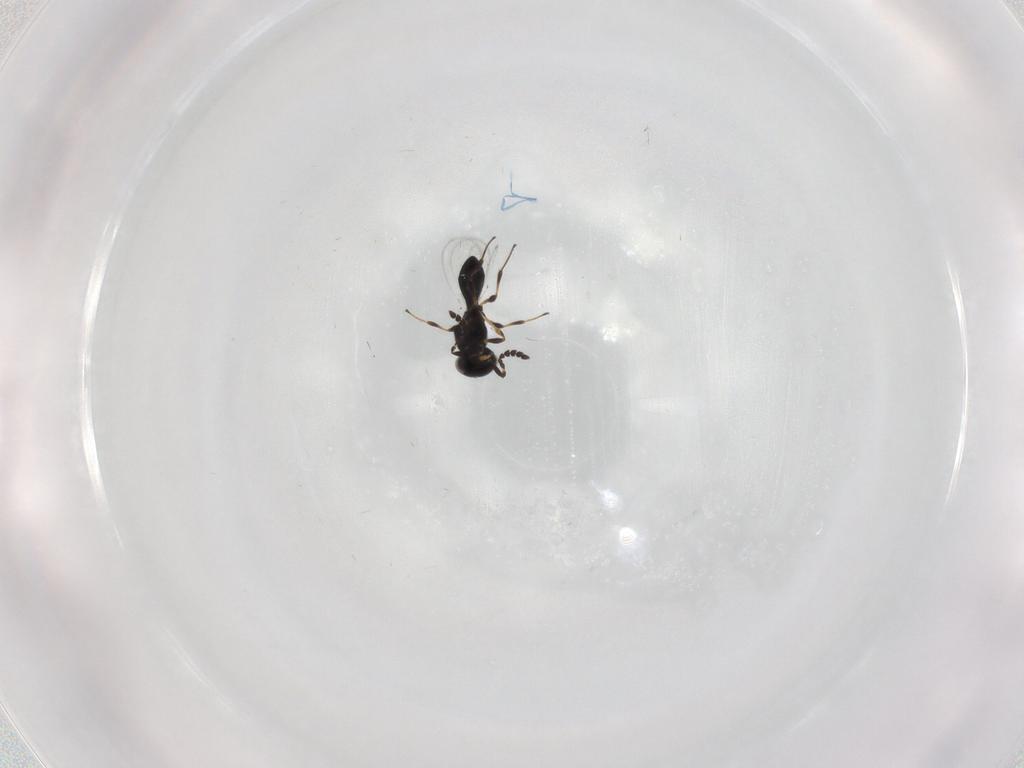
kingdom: Animalia
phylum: Arthropoda
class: Insecta
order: Hymenoptera
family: Platygastridae
